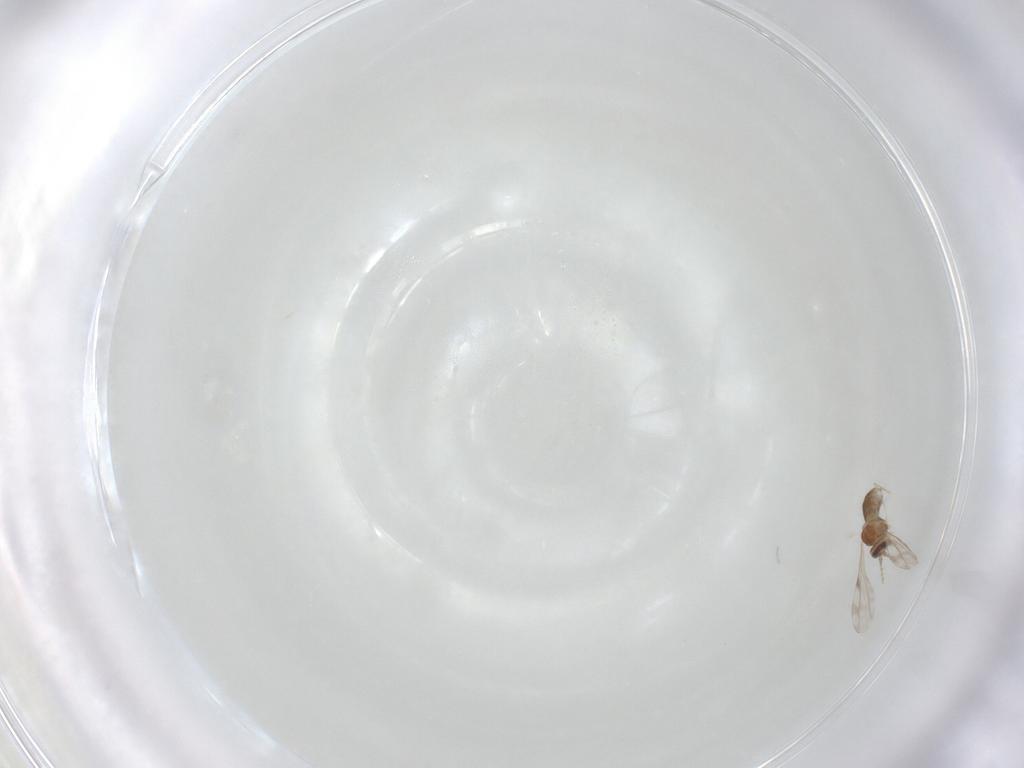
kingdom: Animalia
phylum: Arthropoda
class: Insecta
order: Diptera
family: Cecidomyiidae
